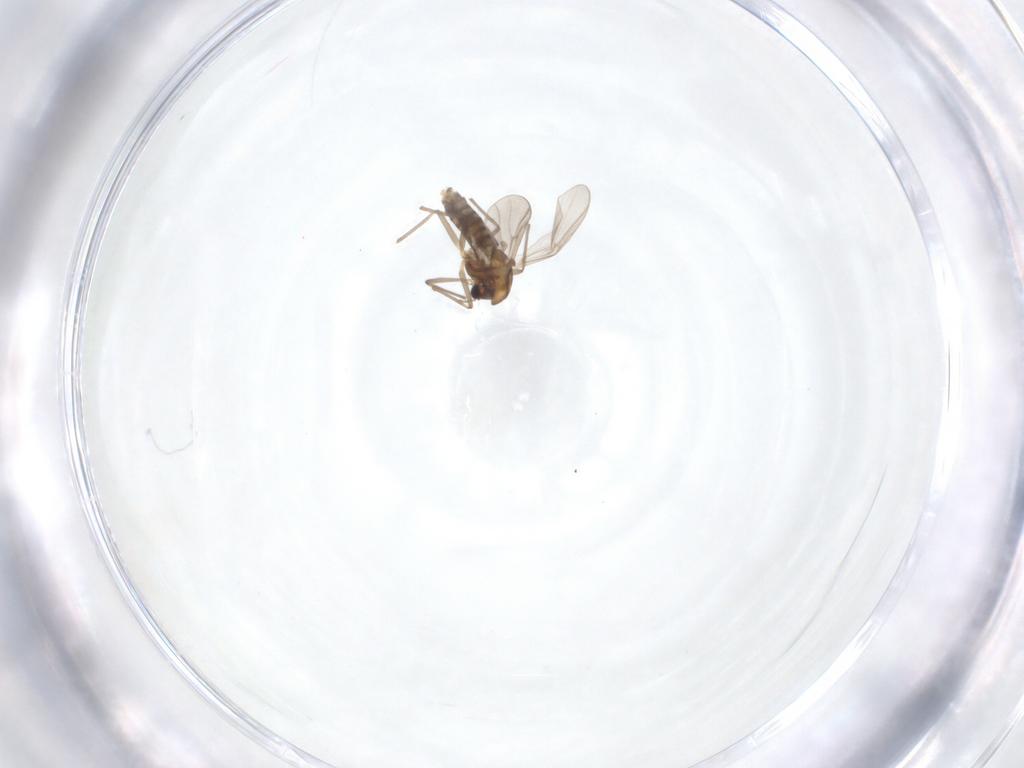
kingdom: Animalia
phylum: Arthropoda
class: Insecta
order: Diptera
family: Chironomidae
